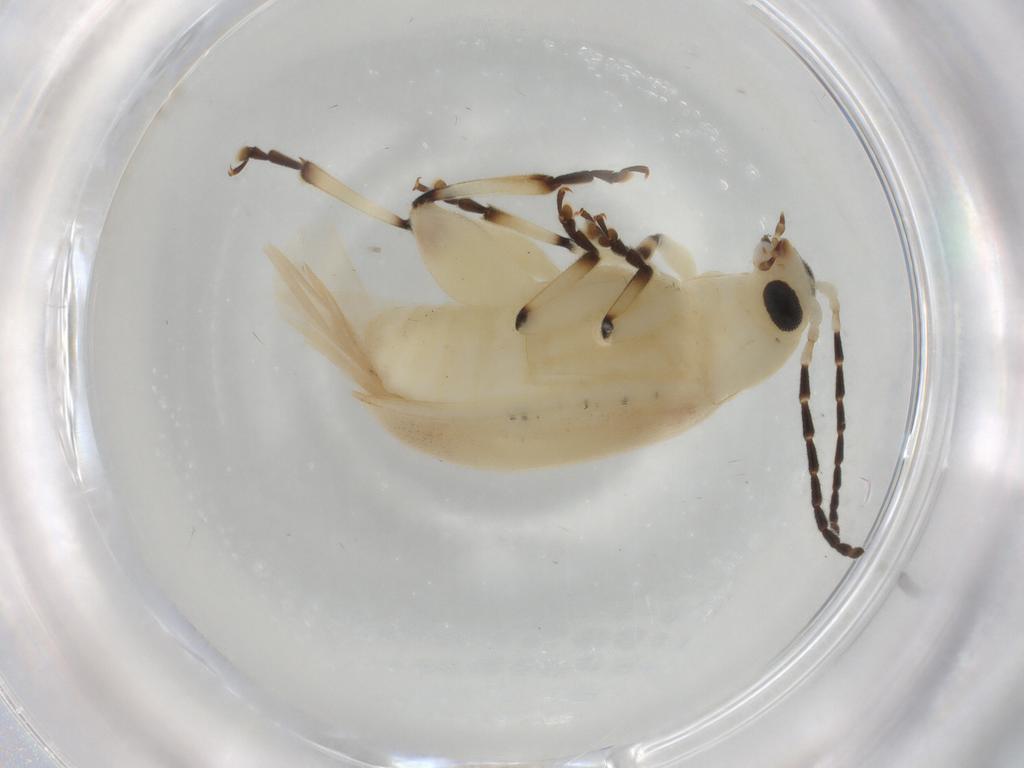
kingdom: Animalia
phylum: Arthropoda
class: Insecta
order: Coleoptera
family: Chrysomelidae
